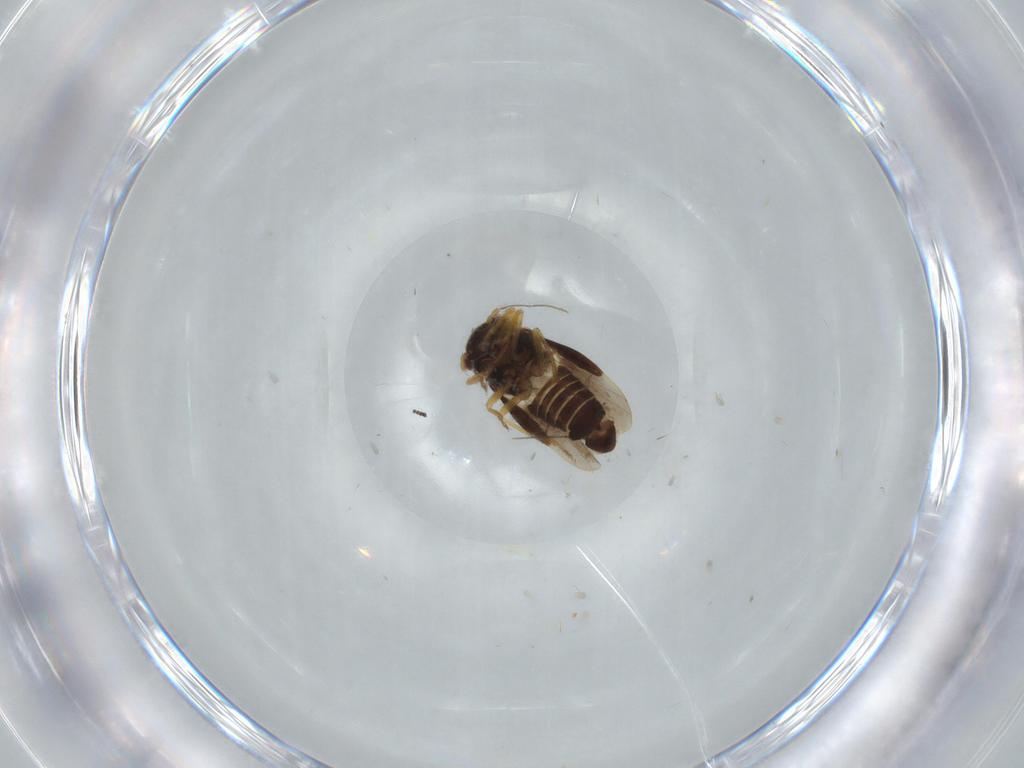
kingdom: Animalia
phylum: Arthropoda
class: Insecta
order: Hemiptera
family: Schizopteridae
